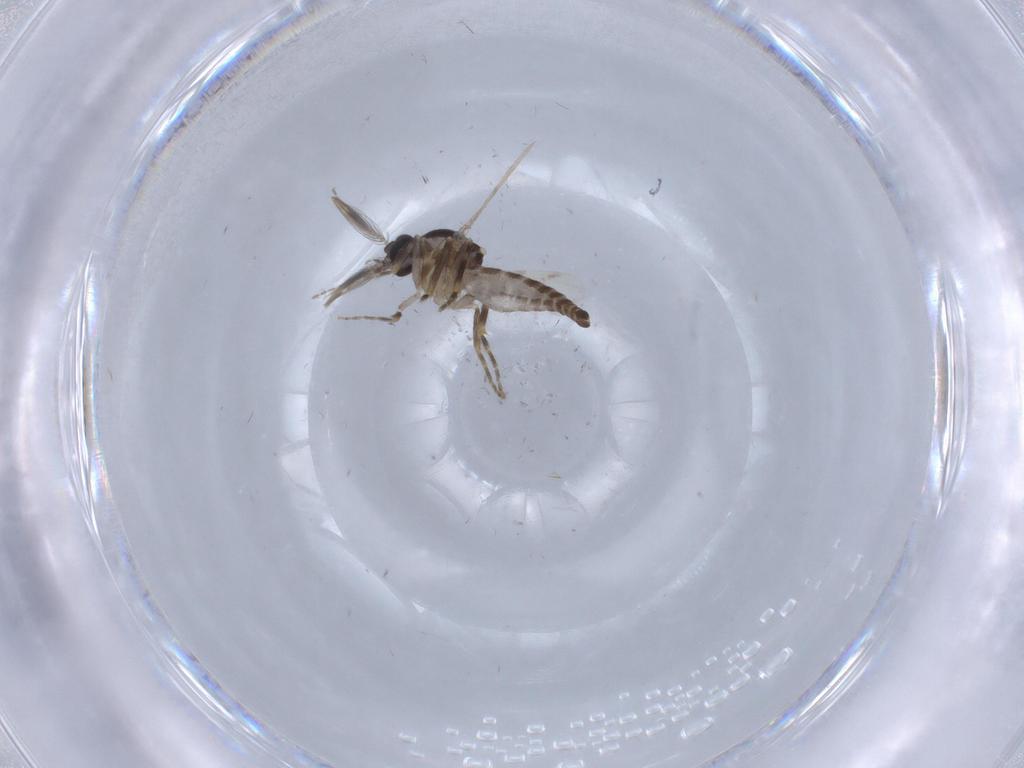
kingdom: Animalia
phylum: Arthropoda
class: Insecta
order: Diptera
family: Ceratopogonidae
